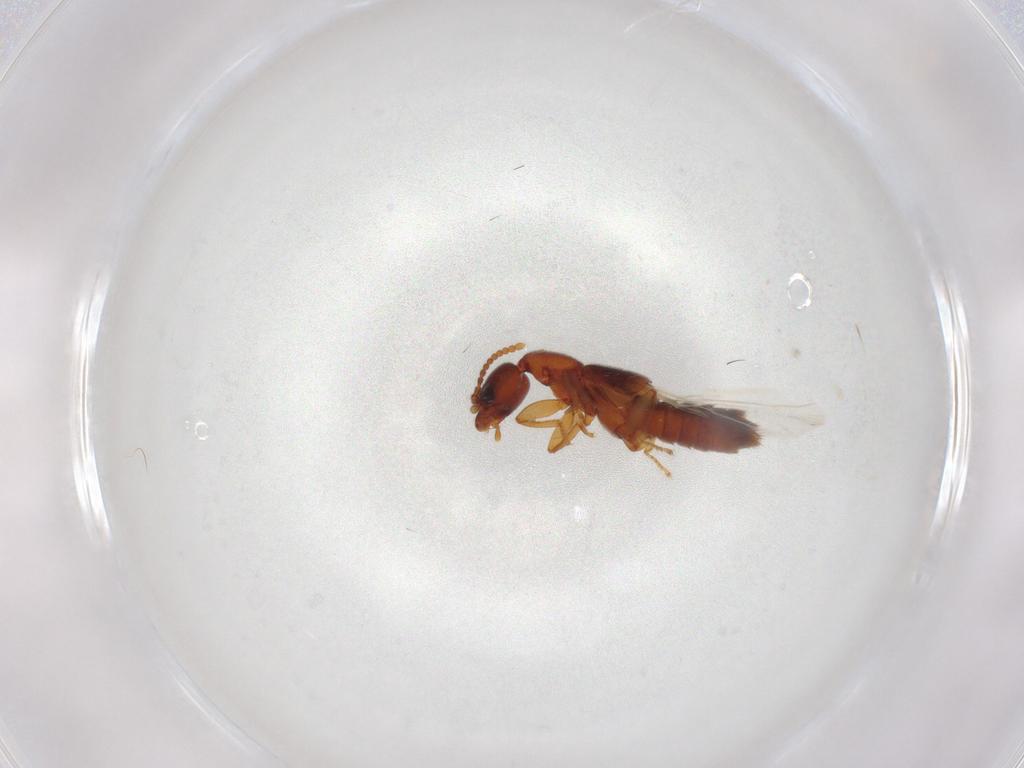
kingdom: Animalia
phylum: Arthropoda
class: Insecta
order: Coleoptera
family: Staphylinidae
